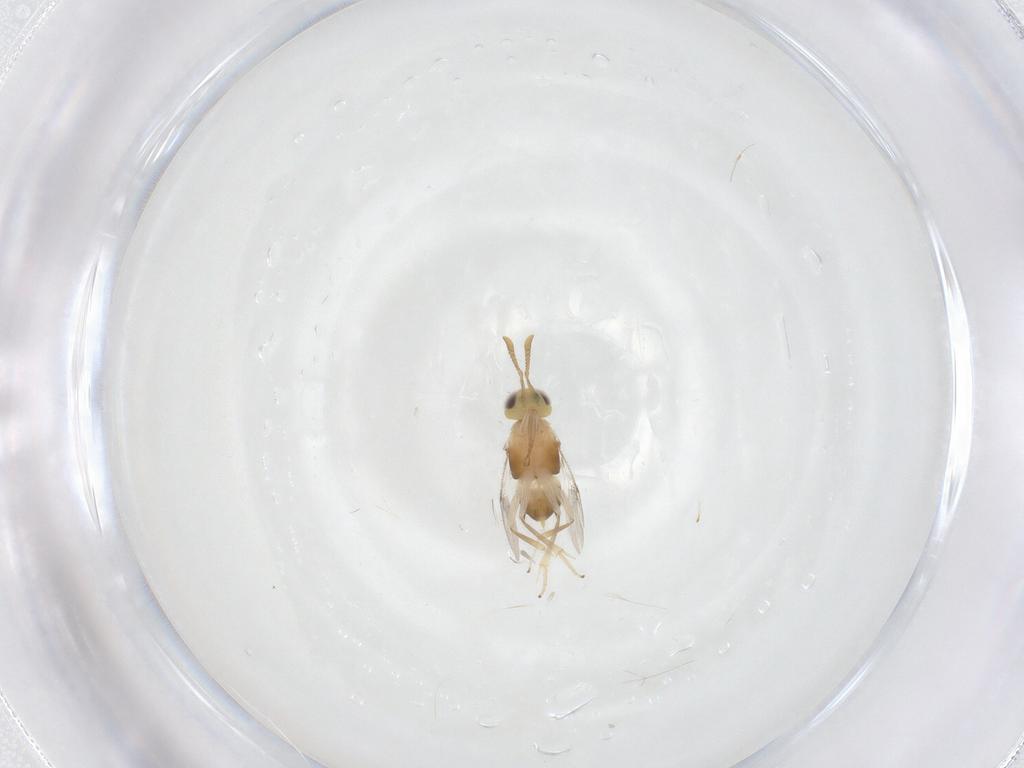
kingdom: Animalia
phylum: Arthropoda
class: Insecta
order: Hymenoptera
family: Encyrtidae
